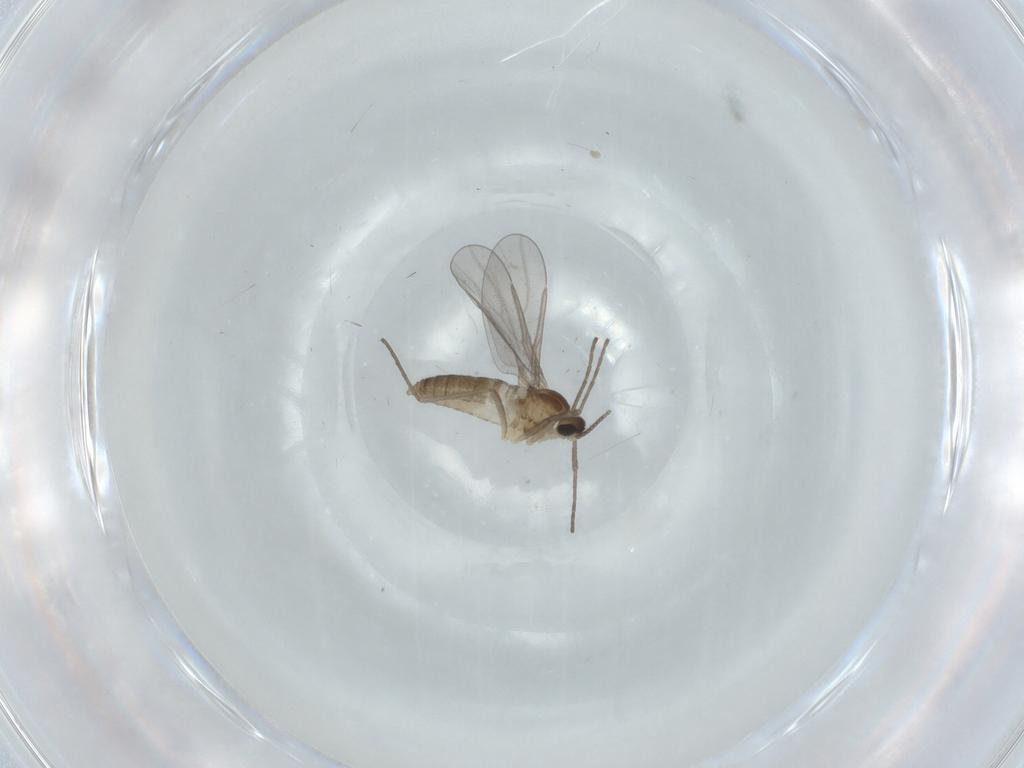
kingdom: Animalia
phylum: Arthropoda
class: Insecta
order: Diptera
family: Cecidomyiidae
